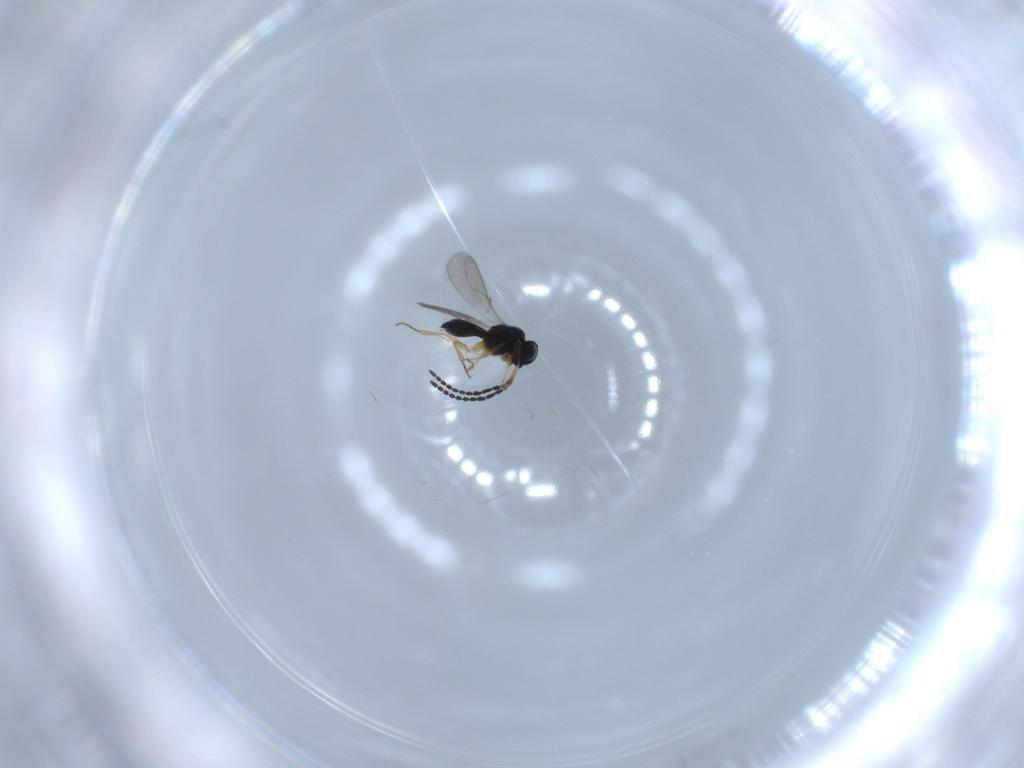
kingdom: Animalia
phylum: Arthropoda
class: Insecta
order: Hymenoptera
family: Scelionidae
